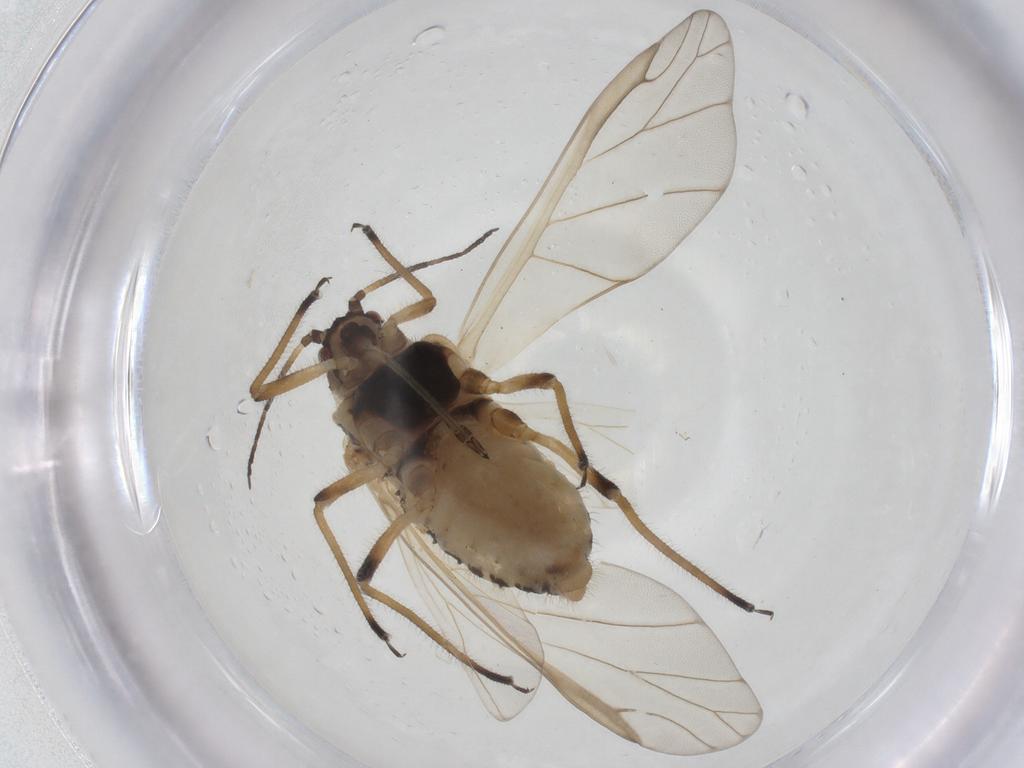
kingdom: Animalia
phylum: Arthropoda
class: Insecta
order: Hemiptera
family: Aphididae
